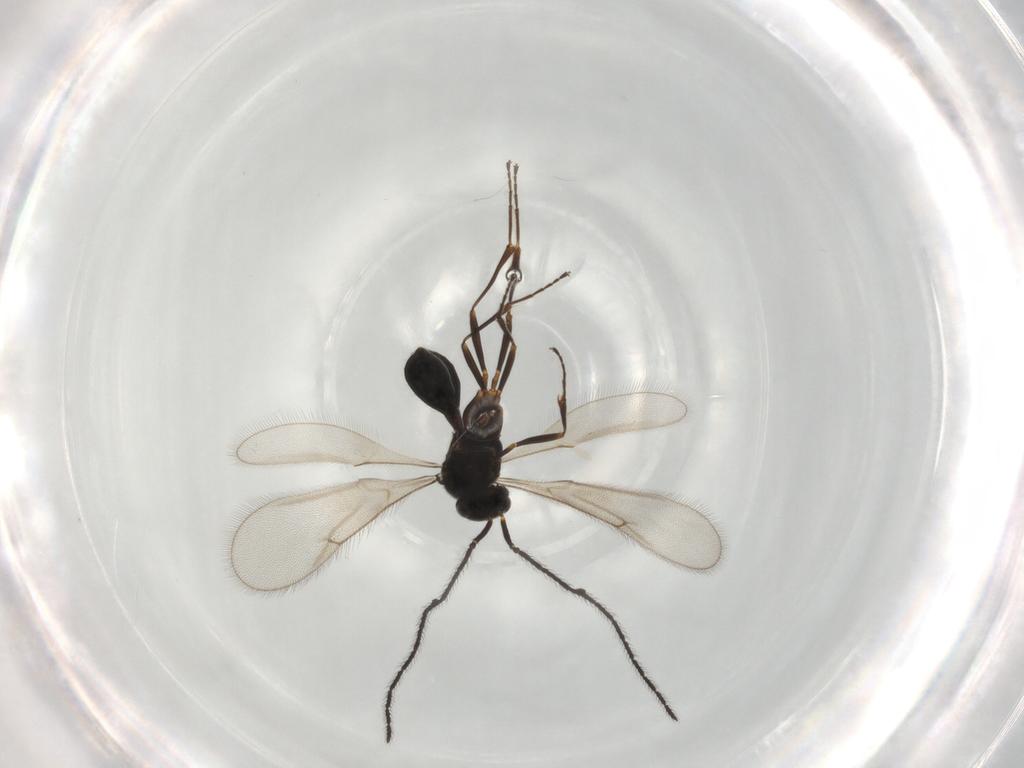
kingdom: Animalia
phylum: Arthropoda
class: Insecta
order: Hymenoptera
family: Scelionidae
